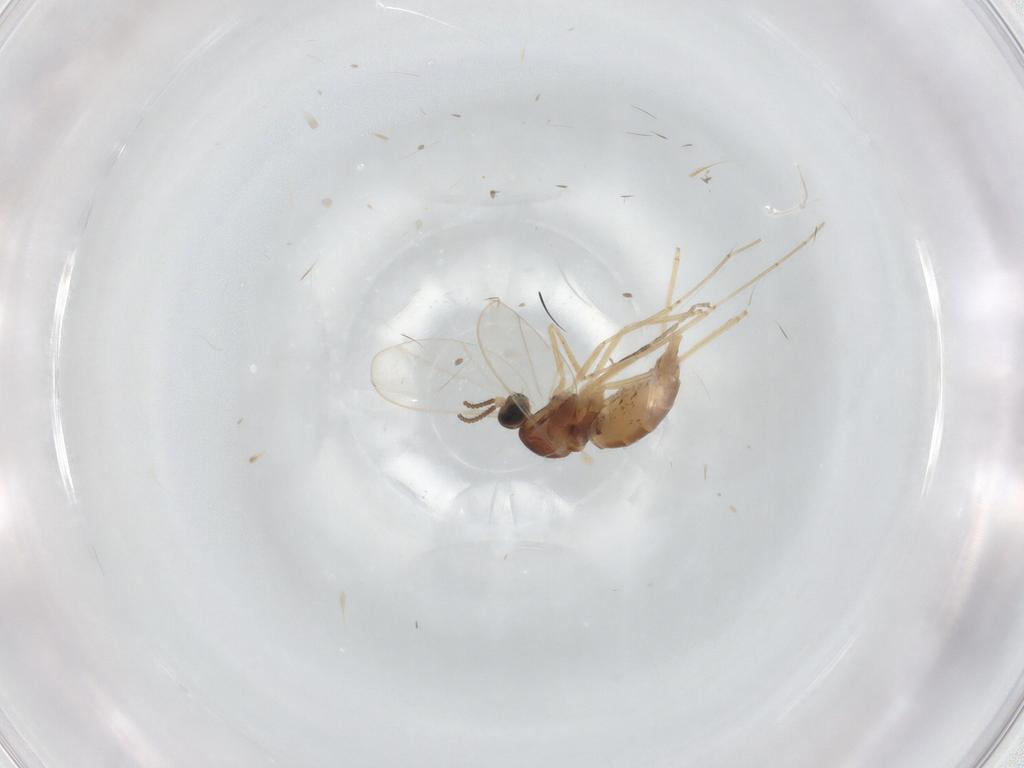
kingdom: Animalia
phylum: Arthropoda
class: Insecta
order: Diptera
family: Cecidomyiidae
